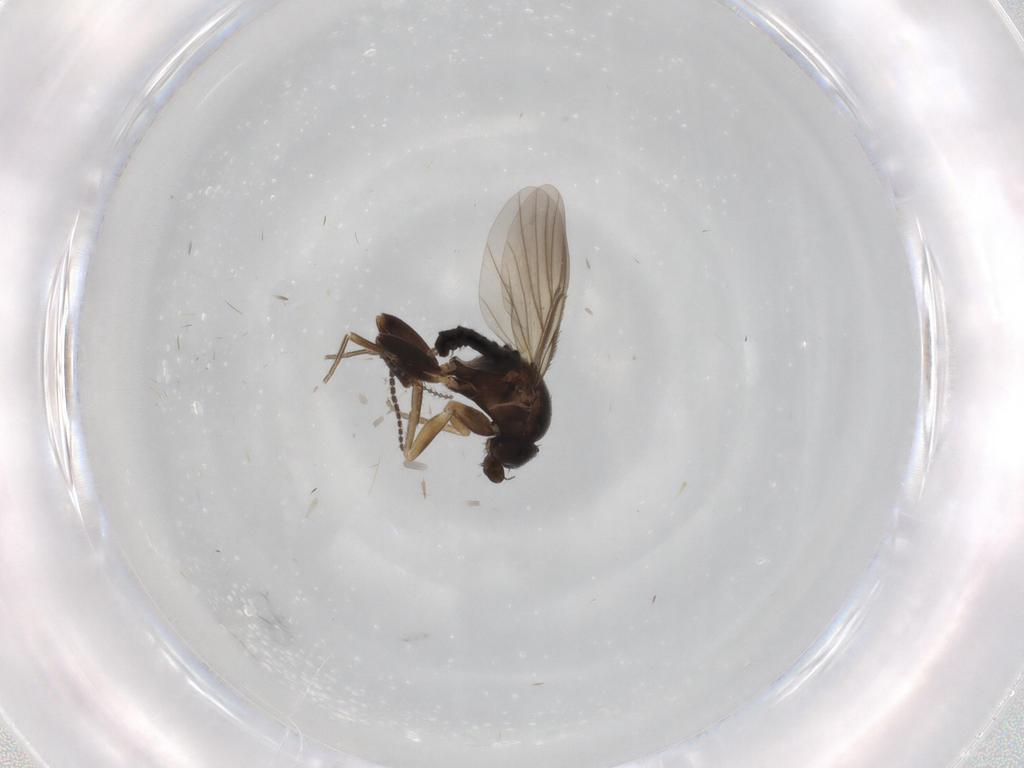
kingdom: Animalia
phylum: Arthropoda
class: Insecta
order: Diptera
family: Sciaridae
